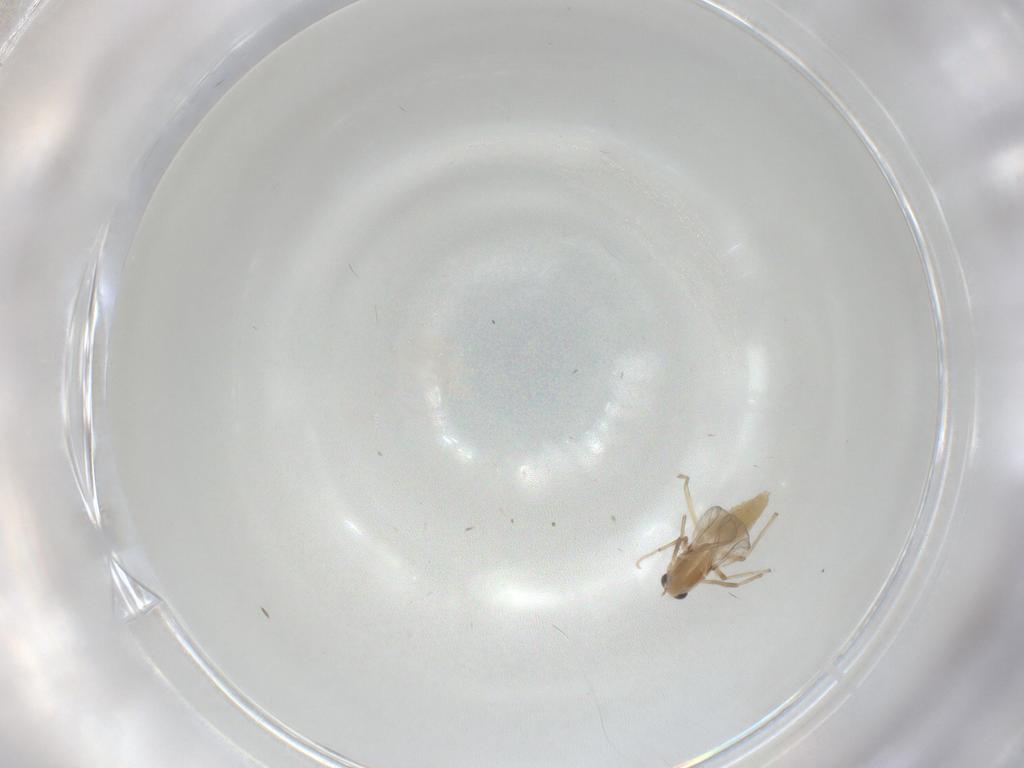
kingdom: Animalia
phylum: Arthropoda
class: Insecta
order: Diptera
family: Chironomidae
